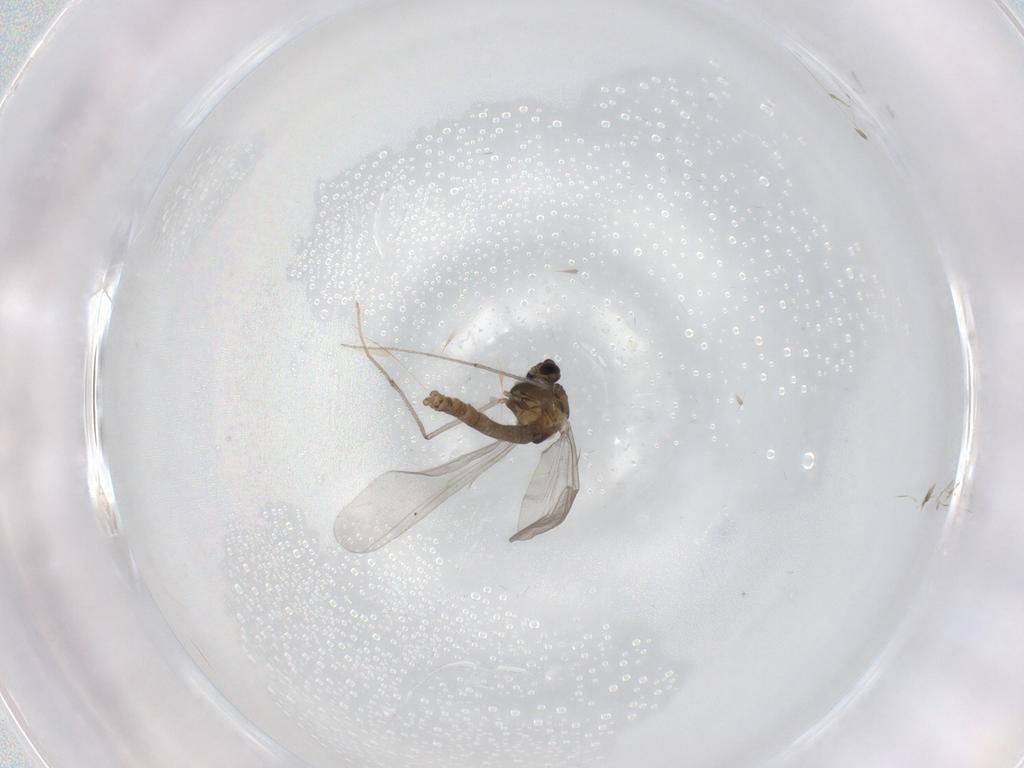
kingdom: Animalia
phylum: Arthropoda
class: Insecta
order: Diptera
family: Chironomidae
